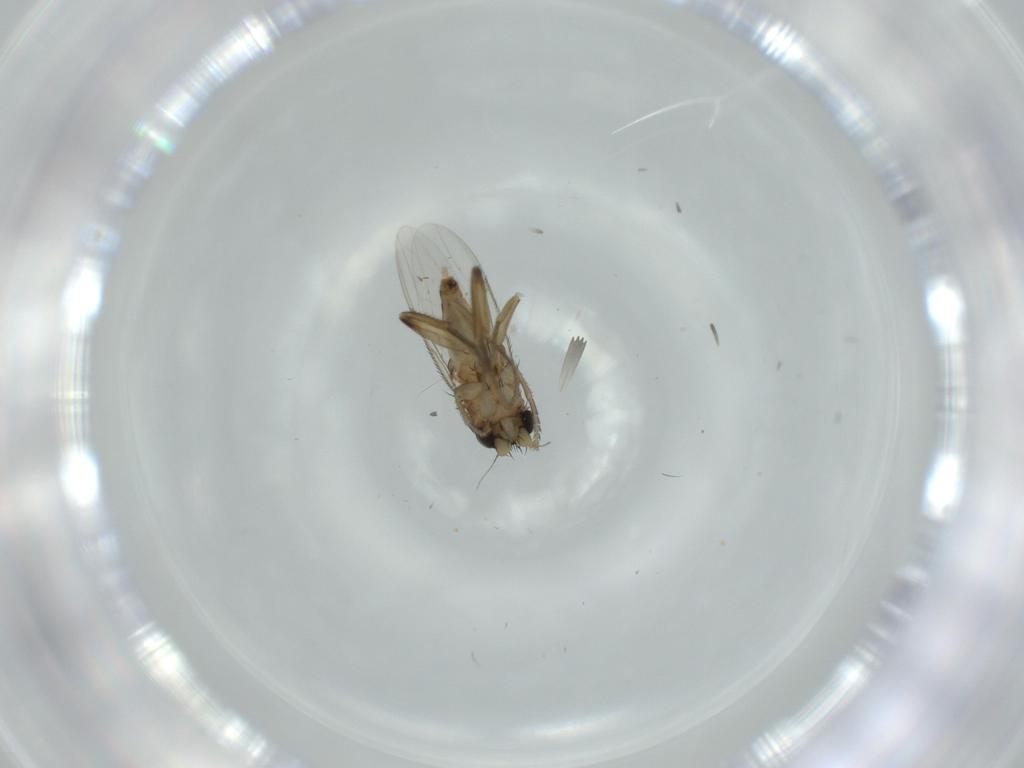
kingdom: Animalia
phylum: Arthropoda
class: Insecta
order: Diptera
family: Phoridae
